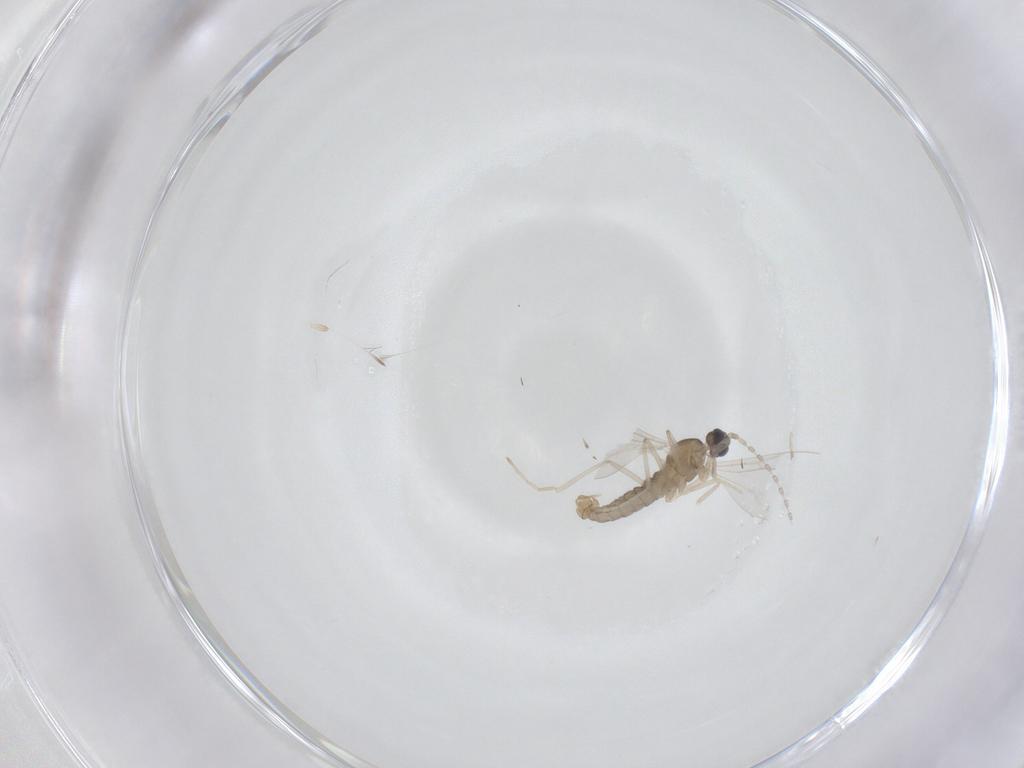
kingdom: Animalia
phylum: Arthropoda
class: Insecta
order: Diptera
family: Cecidomyiidae
